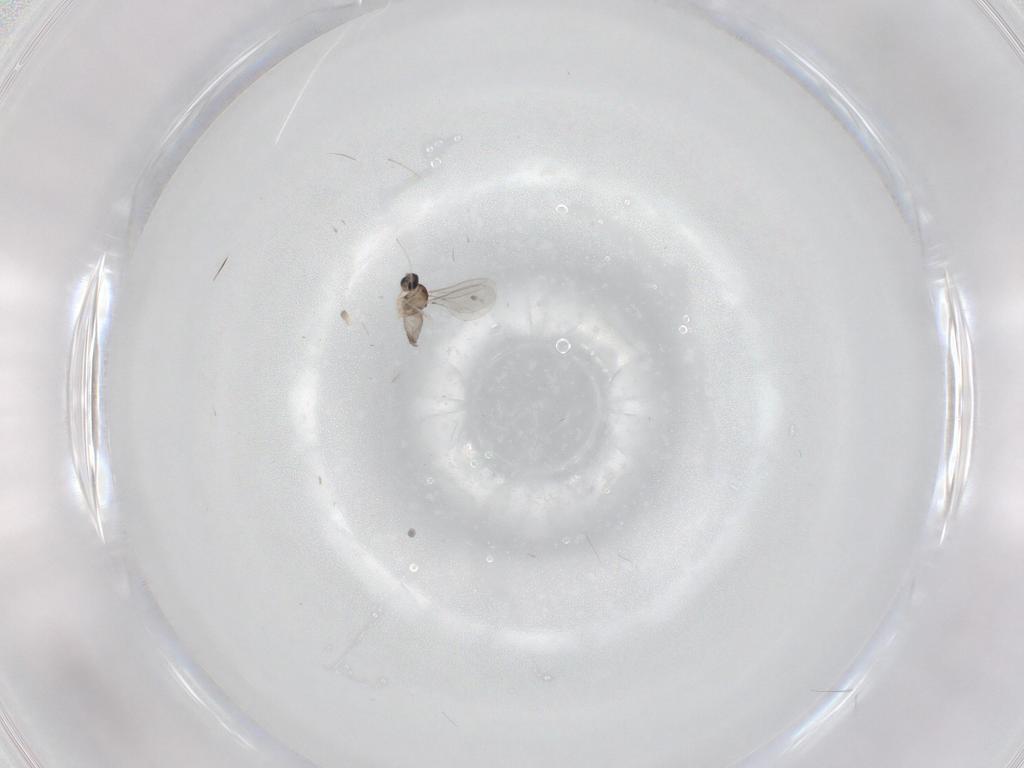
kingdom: Animalia
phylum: Arthropoda
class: Insecta
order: Diptera
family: Cecidomyiidae
